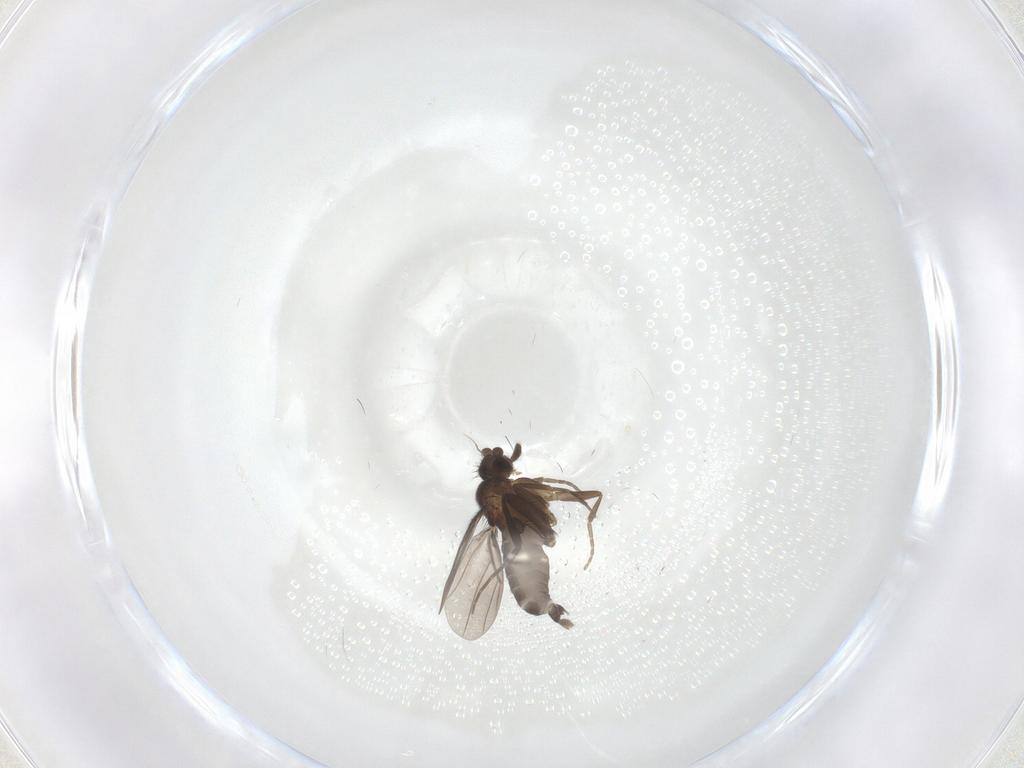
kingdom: Animalia
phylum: Arthropoda
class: Insecta
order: Diptera
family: Phoridae
